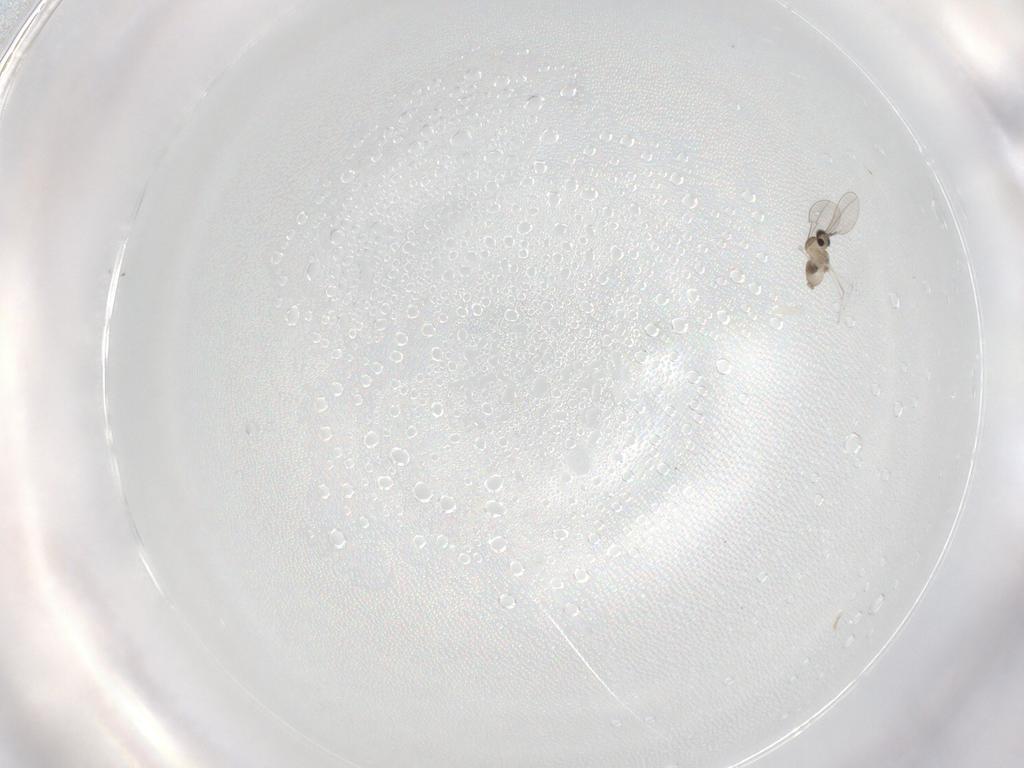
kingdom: Animalia
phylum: Arthropoda
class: Insecta
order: Diptera
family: Cecidomyiidae
